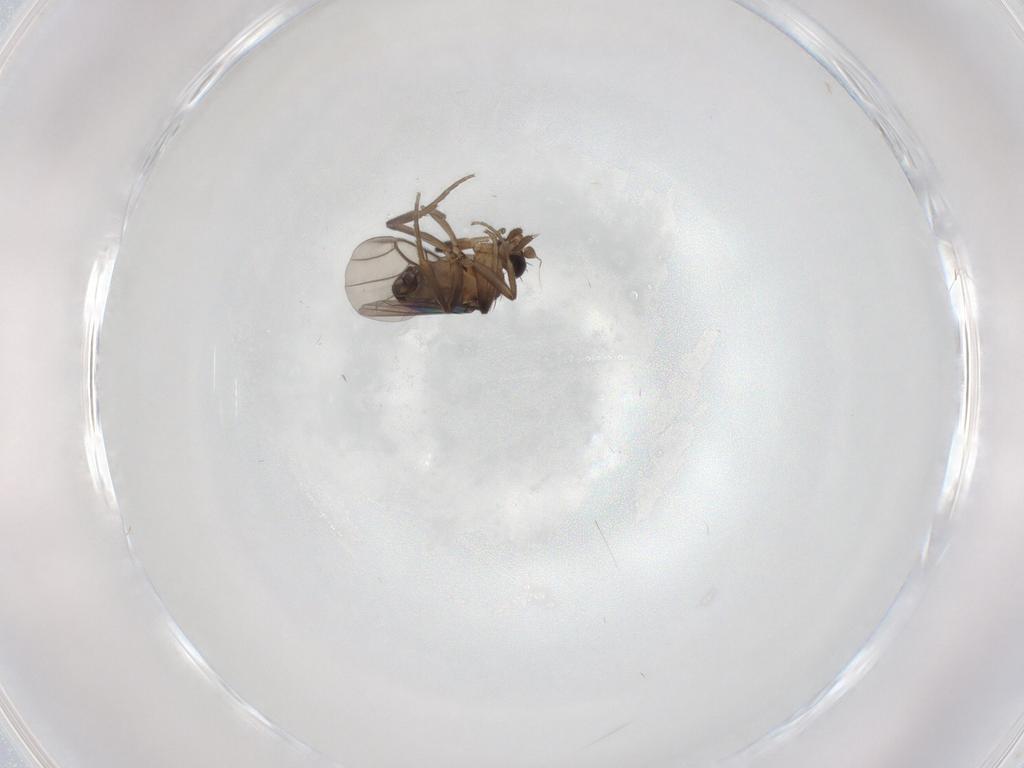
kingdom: Animalia
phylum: Arthropoda
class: Insecta
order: Diptera
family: Phoridae
